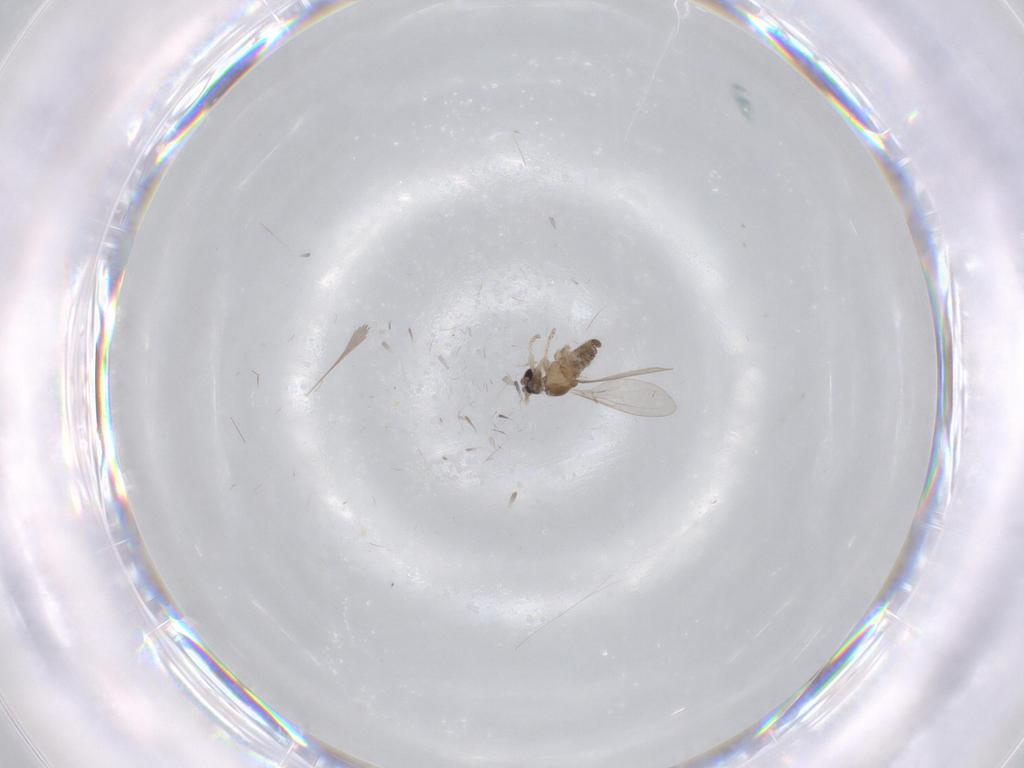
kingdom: Animalia
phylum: Arthropoda
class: Insecta
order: Diptera
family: Cecidomyiidae
